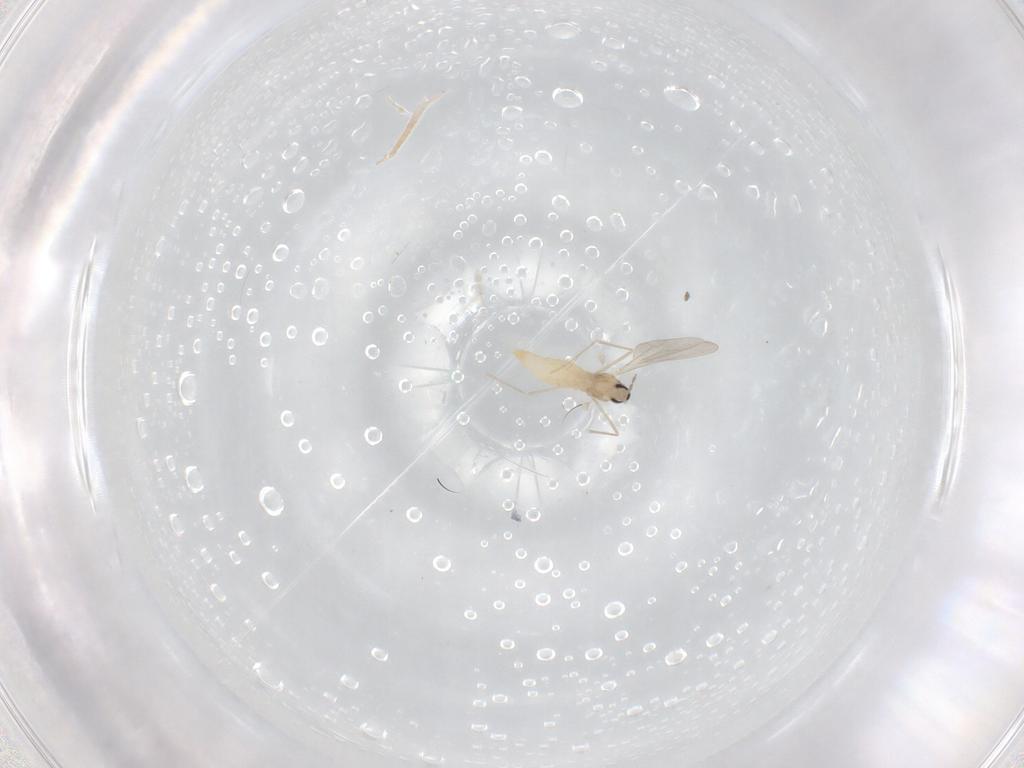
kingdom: Animalia
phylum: Arthropoda
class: Insecta
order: Diptera
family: Cecidomyiidae
